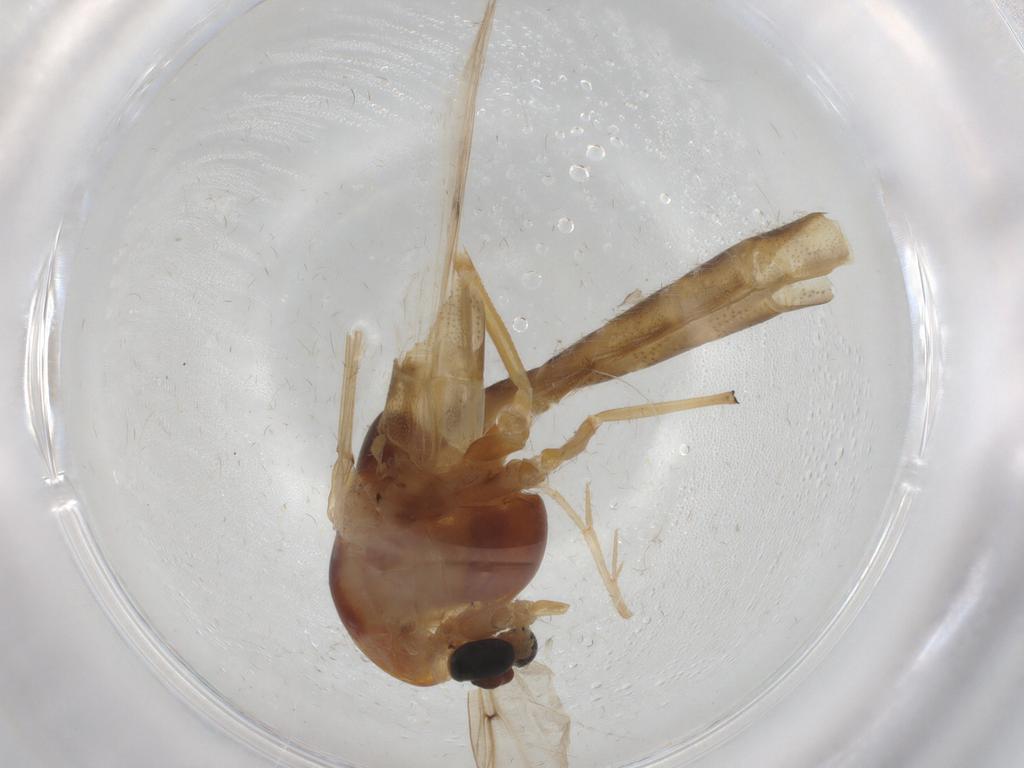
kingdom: Animalia
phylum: Arthropoda
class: Insecta
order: Diptera
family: Chironomidae
